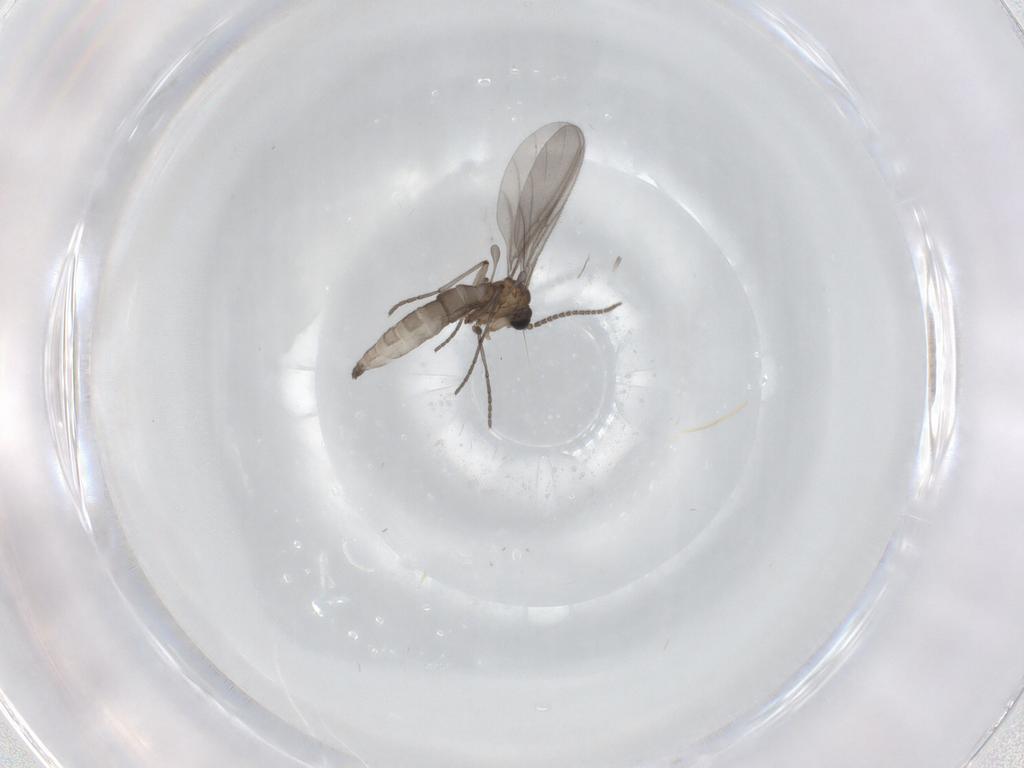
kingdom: Animalia
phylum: Arthropoda
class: Insecta
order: Diptera
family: Sciaridae
